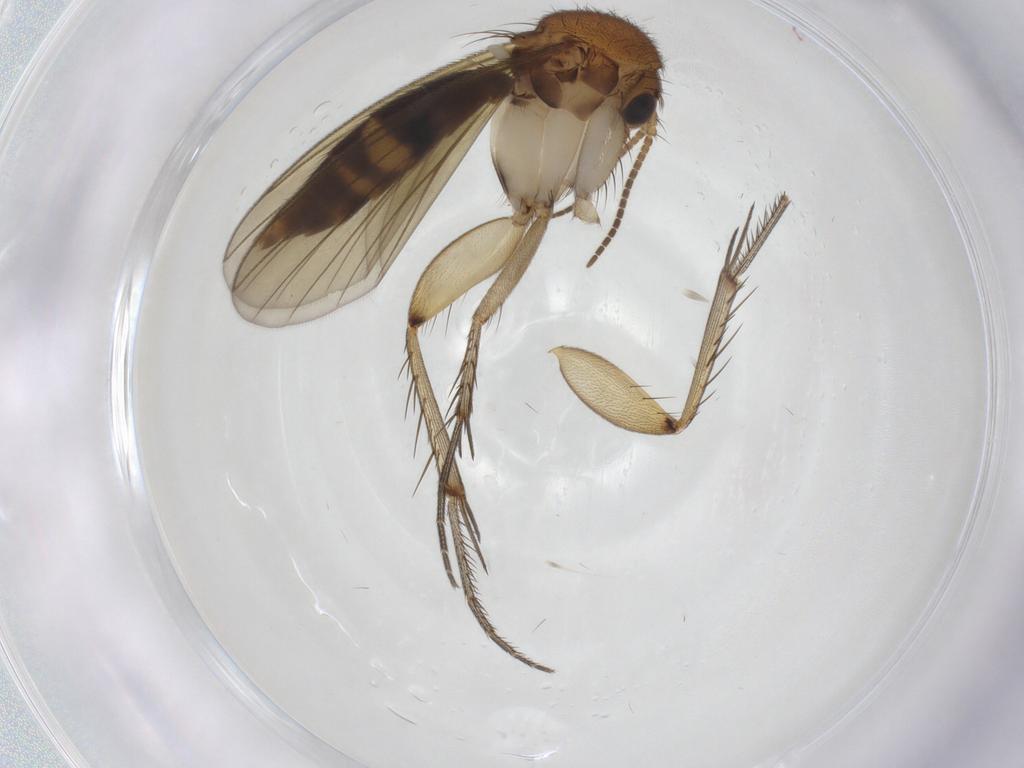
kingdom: Animalia
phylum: Arthropoda
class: Insecta
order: Diptera
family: Mycetophilidae
